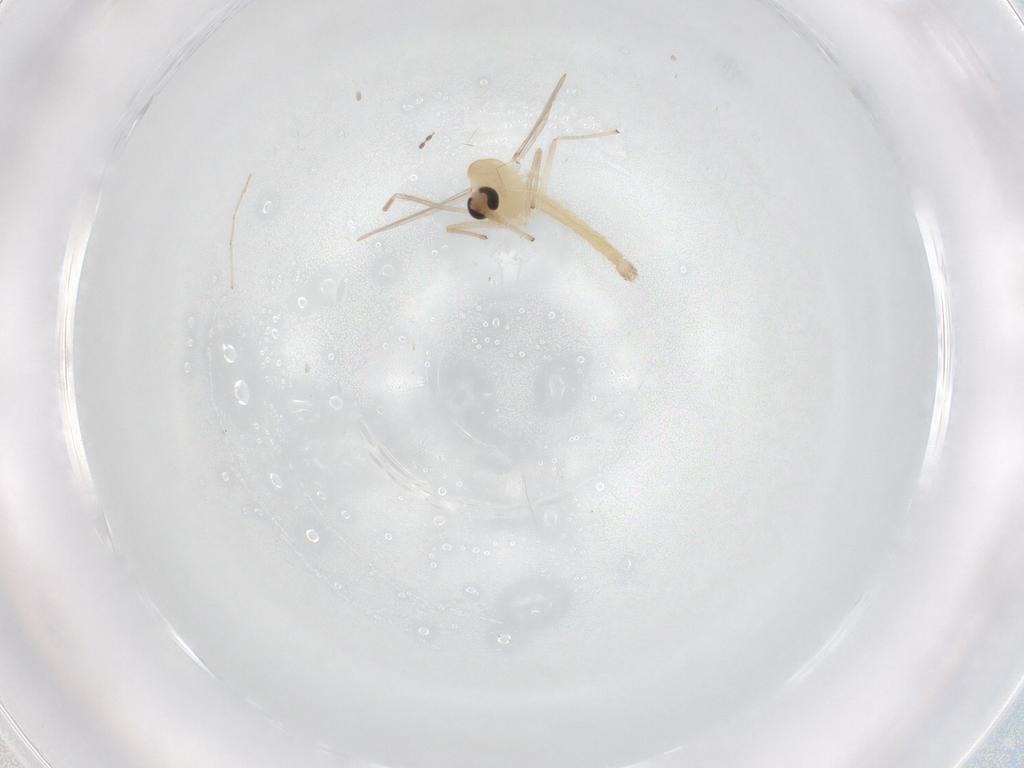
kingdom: Animalia
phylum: Arthropoda
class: Insecta
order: Diptera
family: Chironomidae
